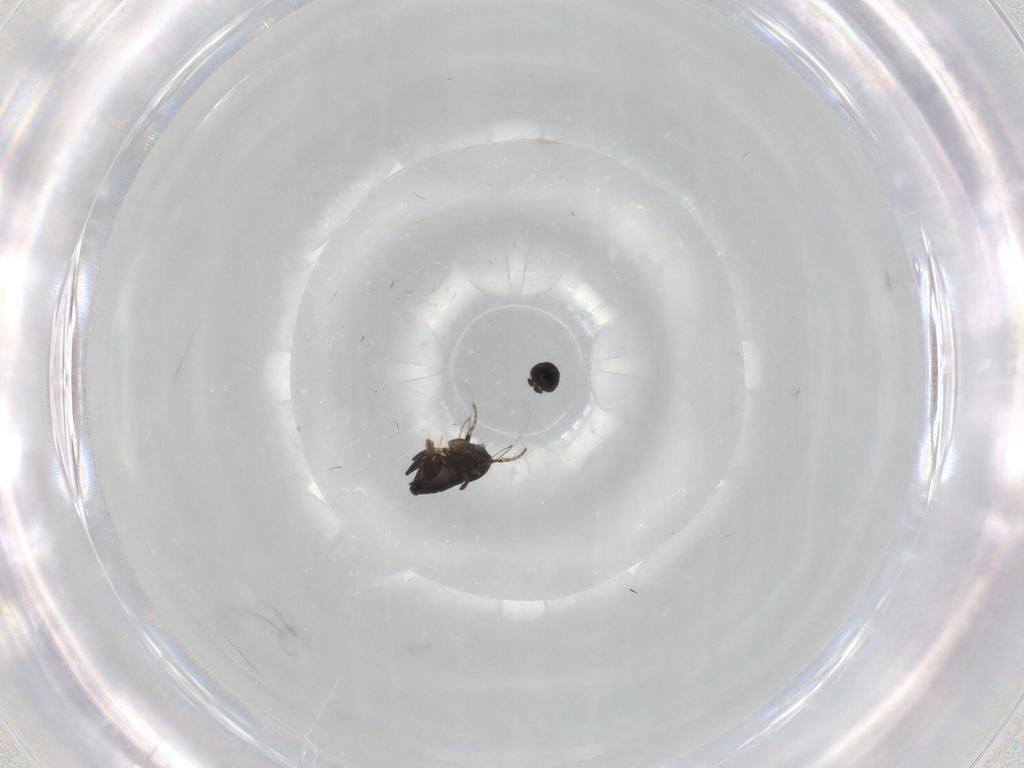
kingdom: Animalia
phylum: Arthropoda
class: Insecta
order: Diptera
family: Phoridae
